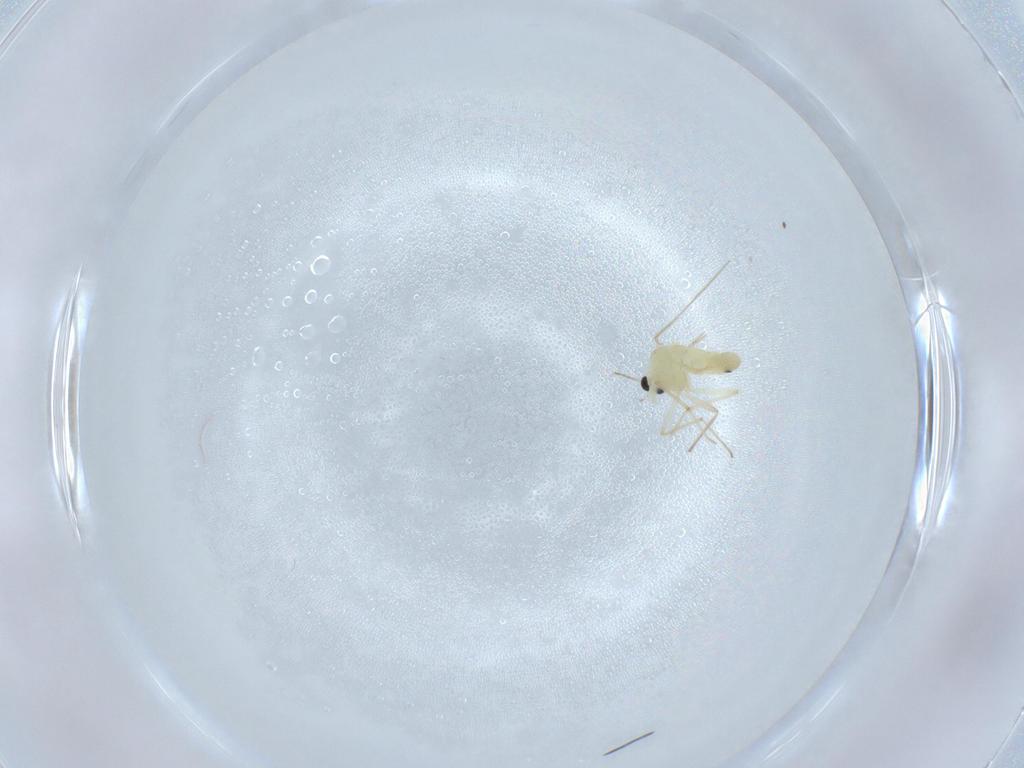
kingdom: Animalia
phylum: Arthropoda
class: Insecta
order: Diptera
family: Chironomidae
